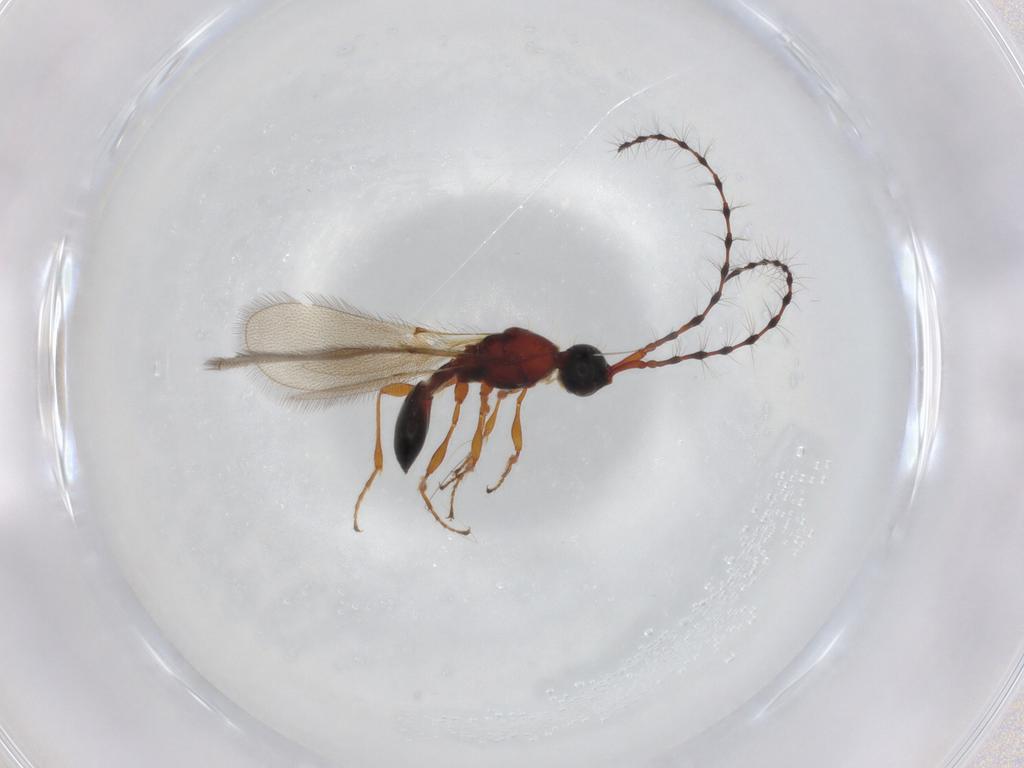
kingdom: Animalia
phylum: Arthropoda
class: Insecta
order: Hymenoptera
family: Diapriidae
